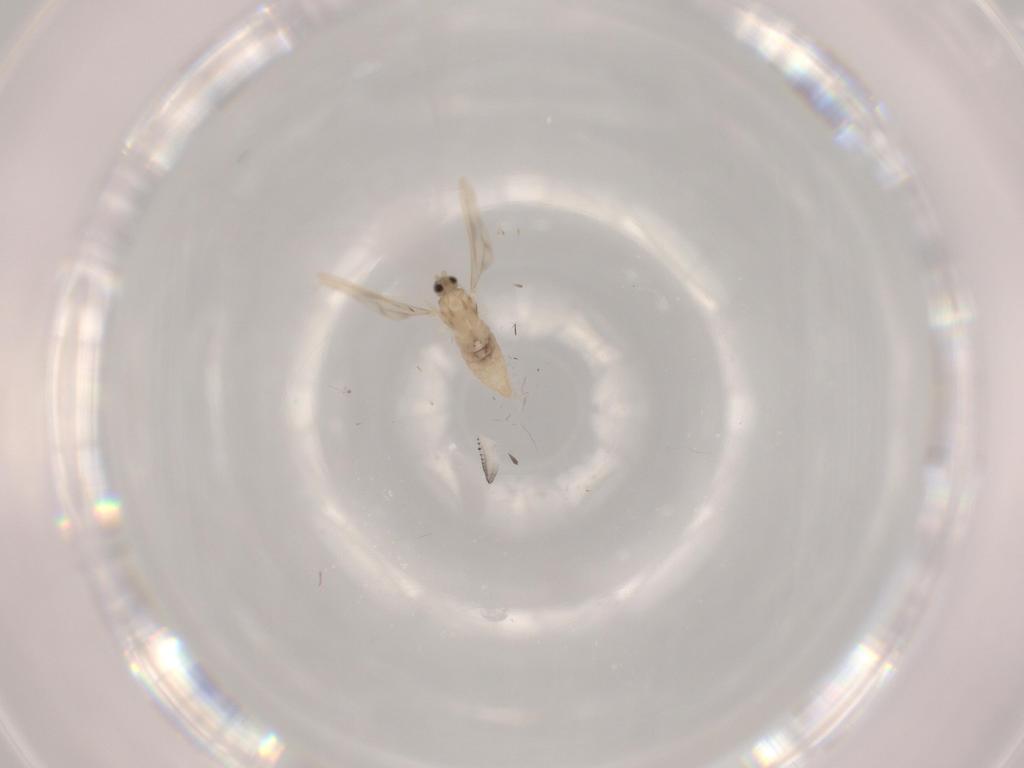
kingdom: Animalia
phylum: Arthropoda
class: Insecta
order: Diptera
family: Cecidomyiidae
